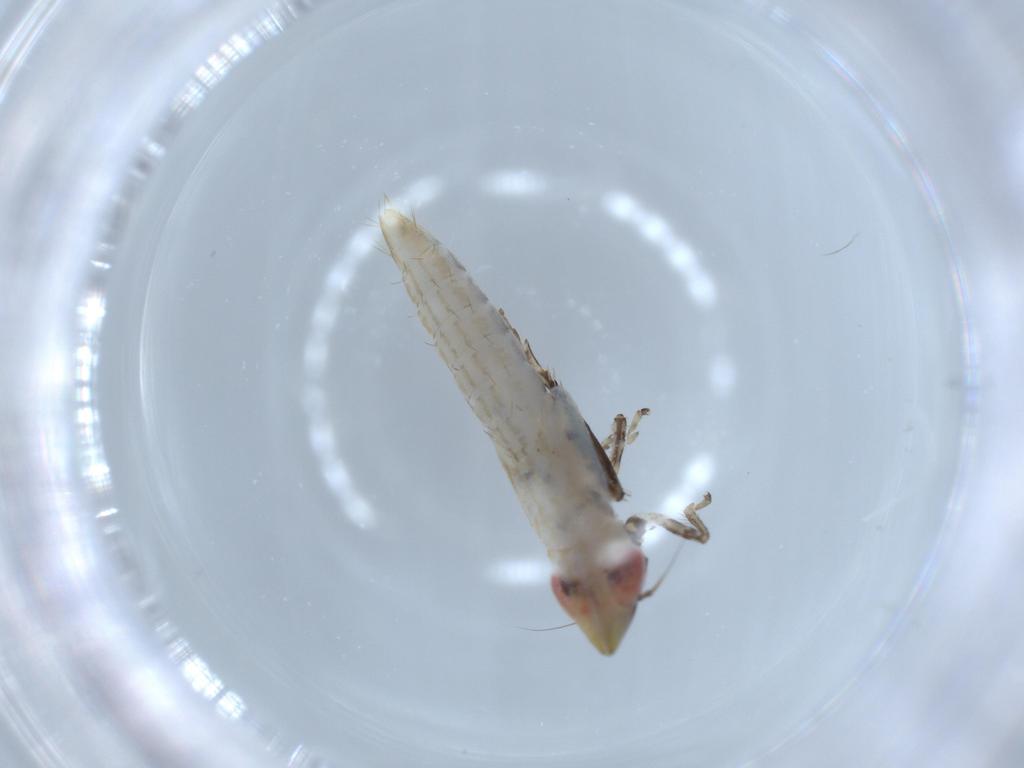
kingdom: Animalia
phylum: Arthropoda
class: Insecta
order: Hemiptera
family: Cicadellidae
